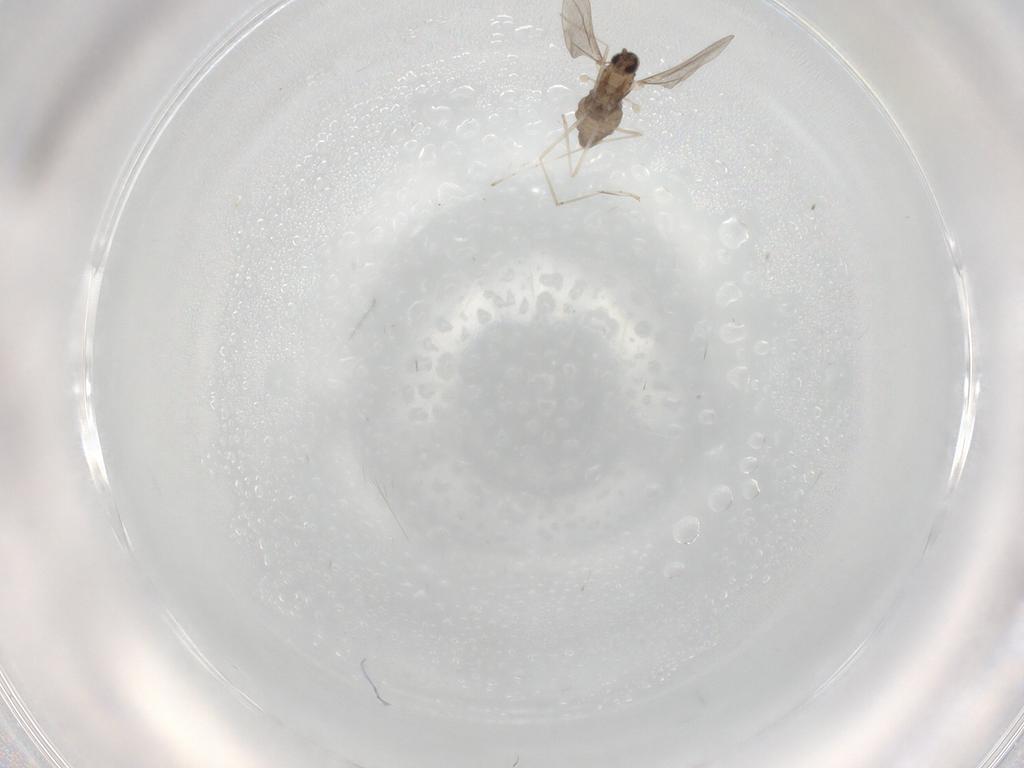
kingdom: Animalia
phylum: Arthropoda
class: Insecta
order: Diptera
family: Cecidomyiidae
